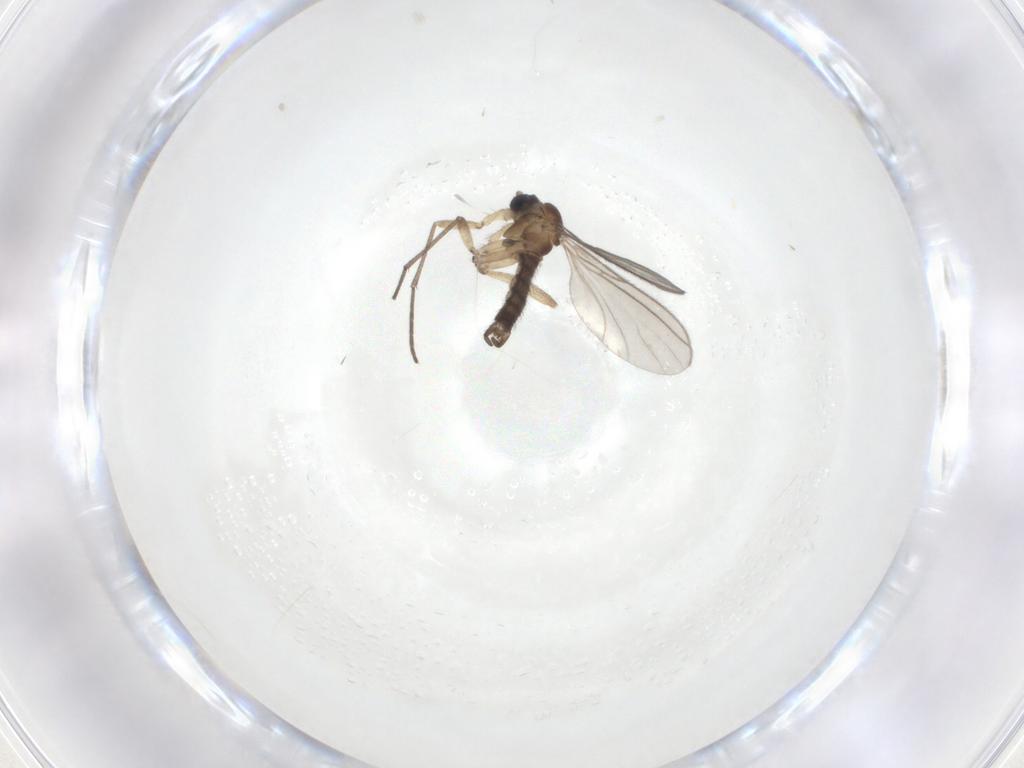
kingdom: Animalia
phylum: Arthropoda
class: Insecta
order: Diptera
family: Sciaridae
